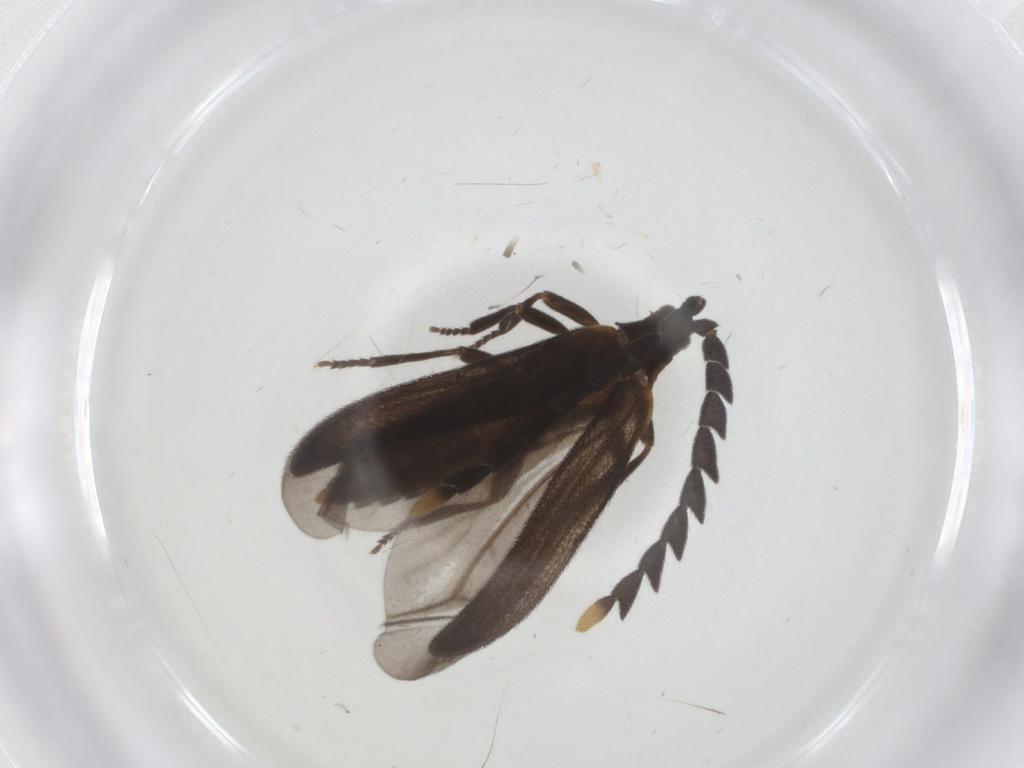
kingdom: Animalia
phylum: Arthropoda
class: Insecta
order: Coleoptera
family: Lycidae
